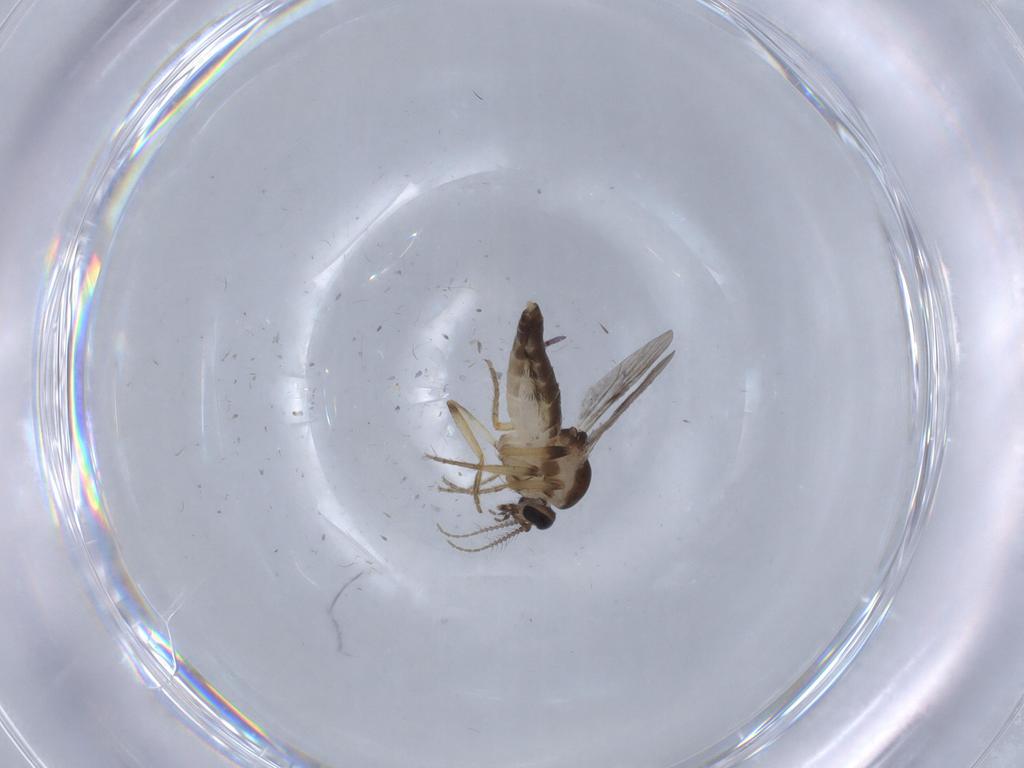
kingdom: Animalia
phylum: Arthropoda
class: Insecta
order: Diptera
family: Ceratopogonidae
